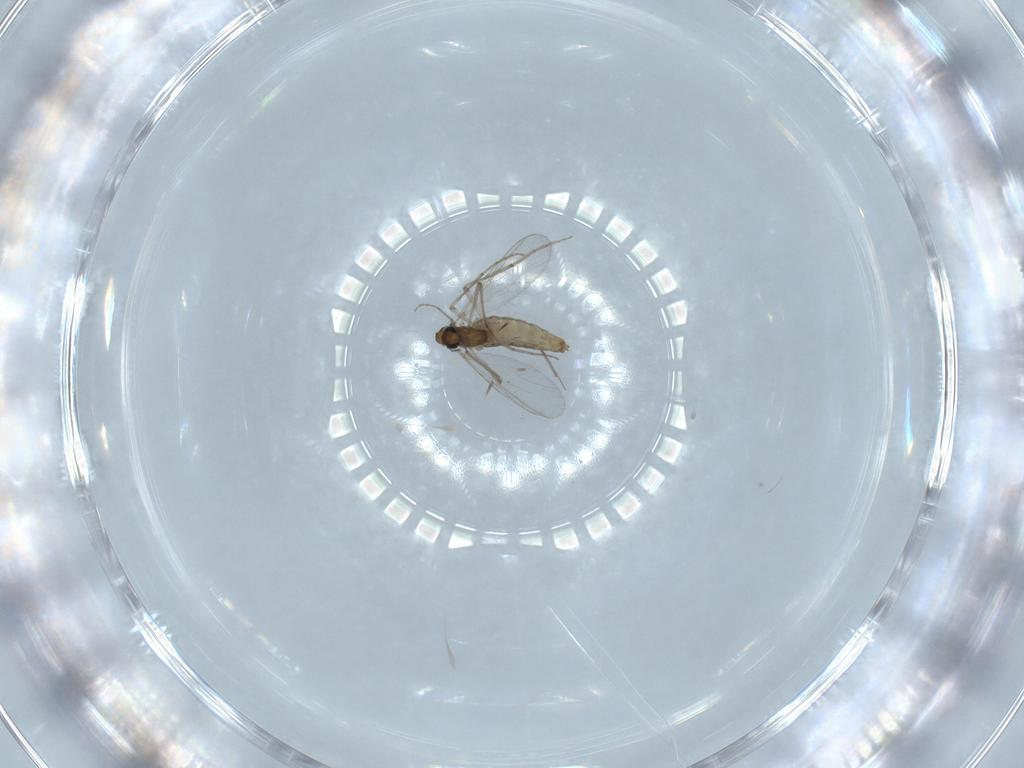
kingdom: Animalia
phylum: Arthropoda
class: Insecta
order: Diptera
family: Chironomidae
